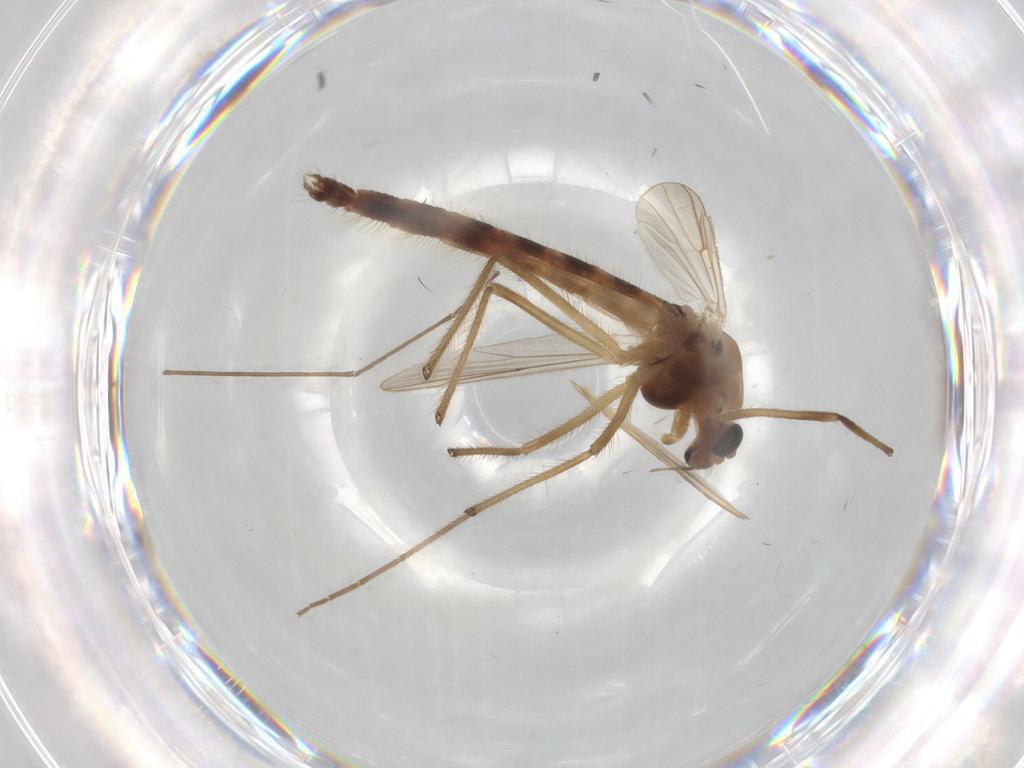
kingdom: Animalia
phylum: Arthropoda
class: Insecta
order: Diptera
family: Chironomidae
